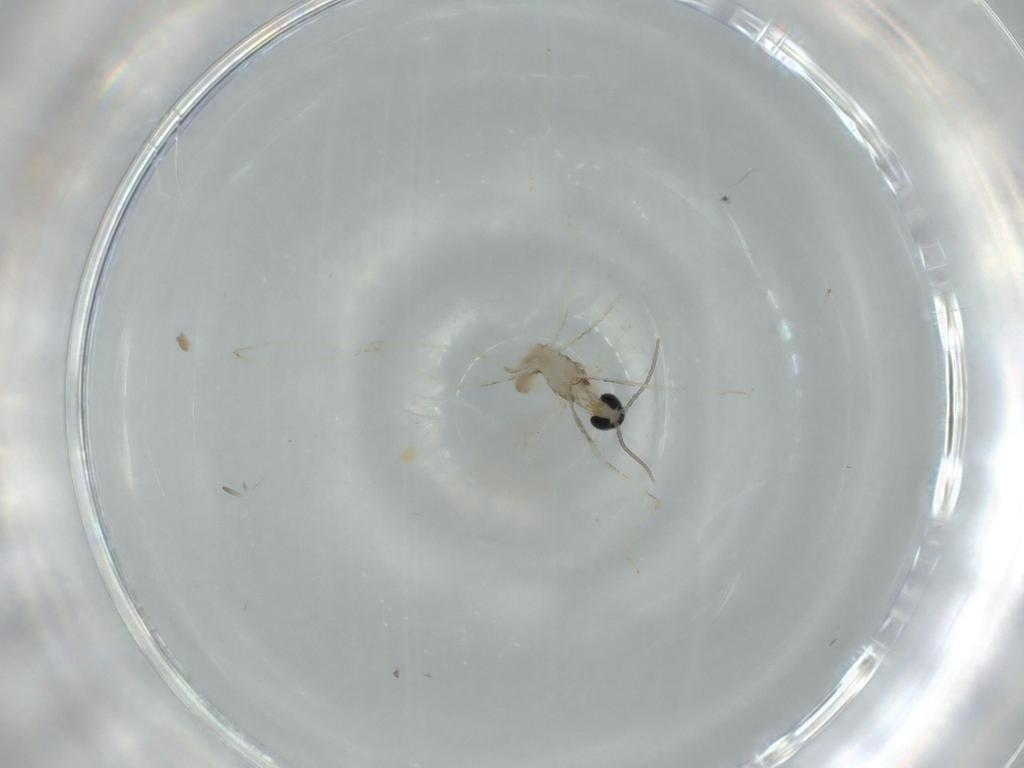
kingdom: Animalia
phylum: Arthropoda
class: Insecta
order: Diptera
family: Cecidomyiidae
